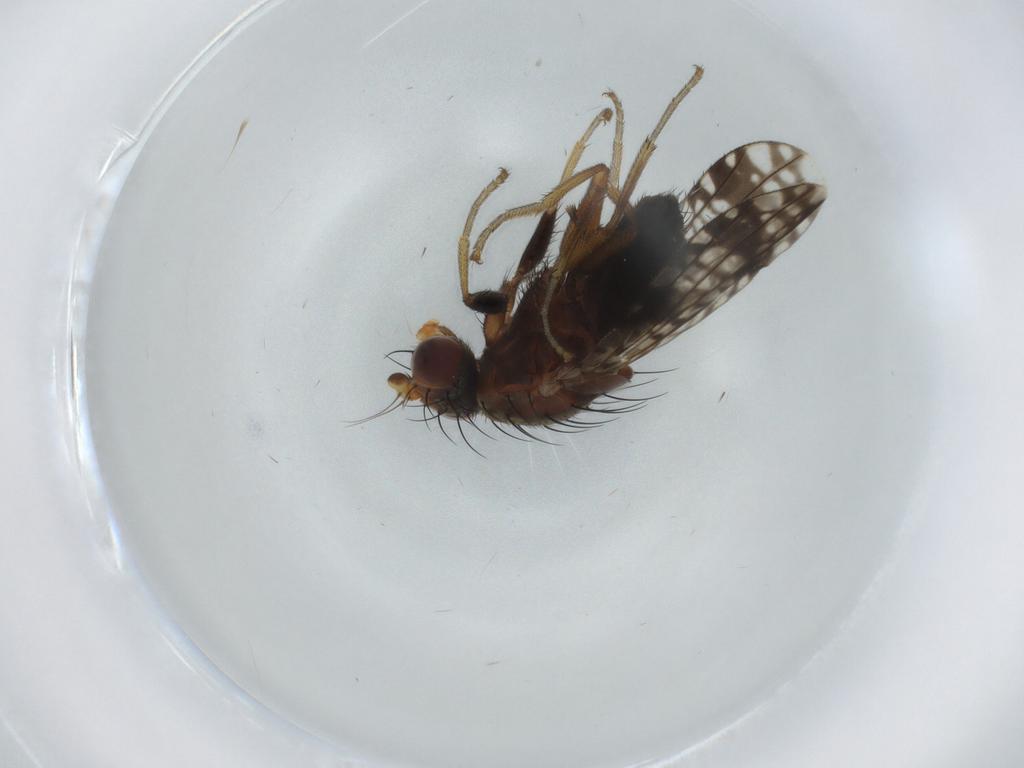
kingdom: Animalia
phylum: Arthropoda
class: Insecta
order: Diptera
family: Tephritidae
